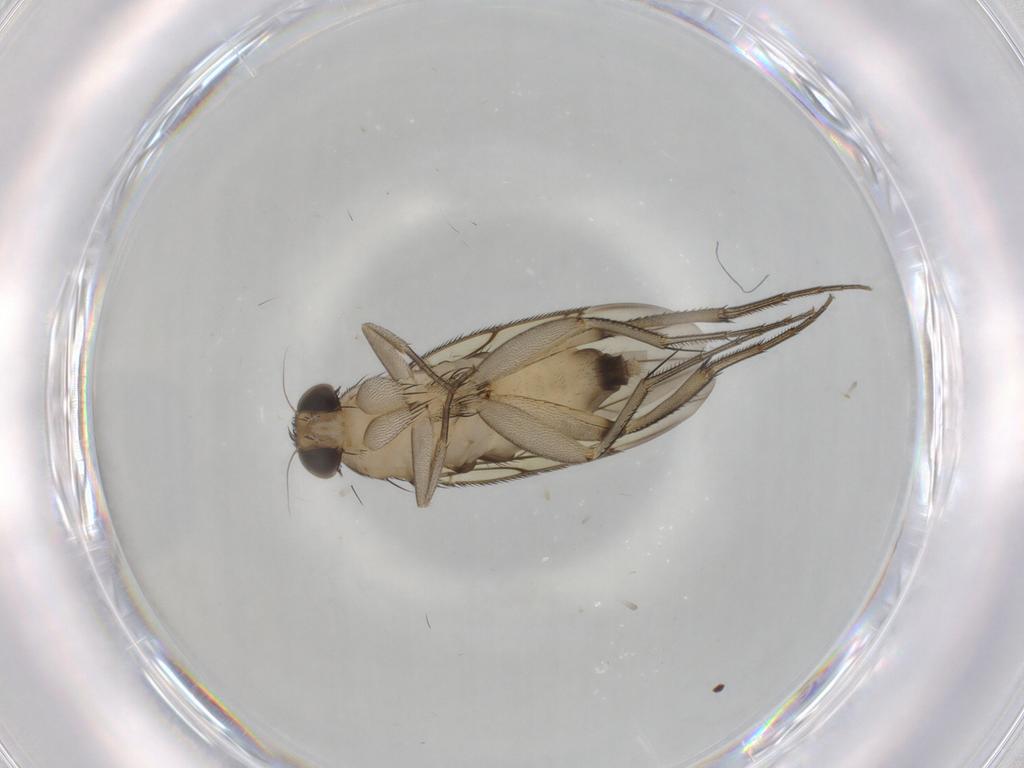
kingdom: Animalia
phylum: Arthropoda
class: Insecta
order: Diptera
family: Phoridae
